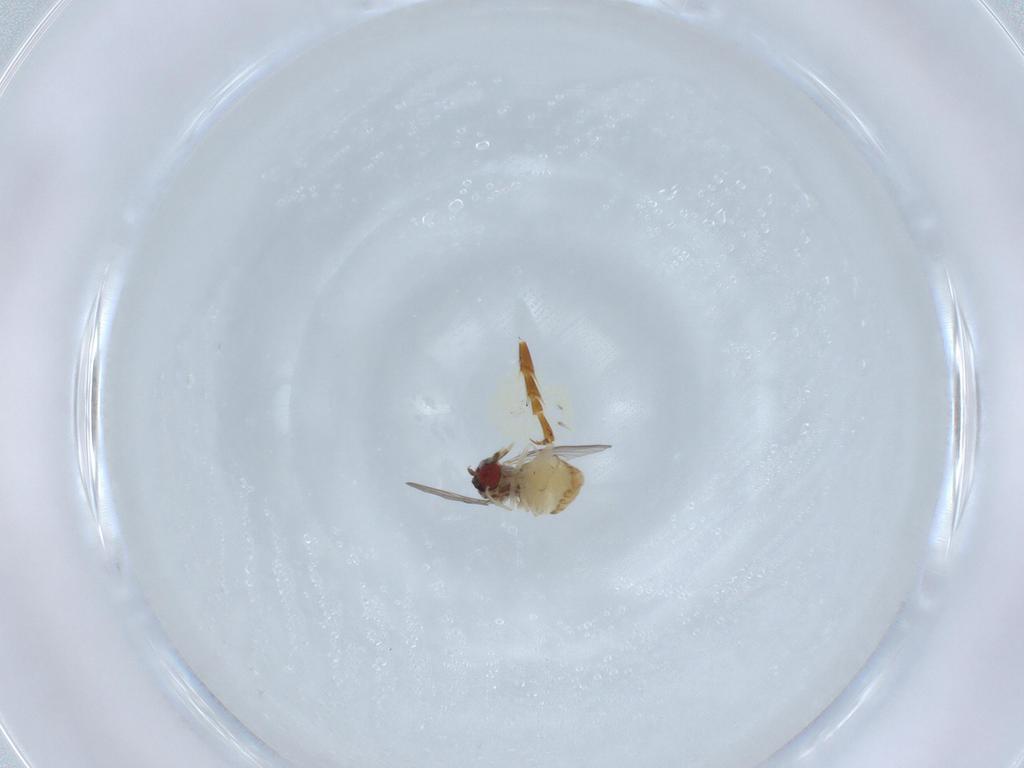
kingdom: Animalia
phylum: Arthropoda
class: Insecta
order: Diptera
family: Bombyliidae
